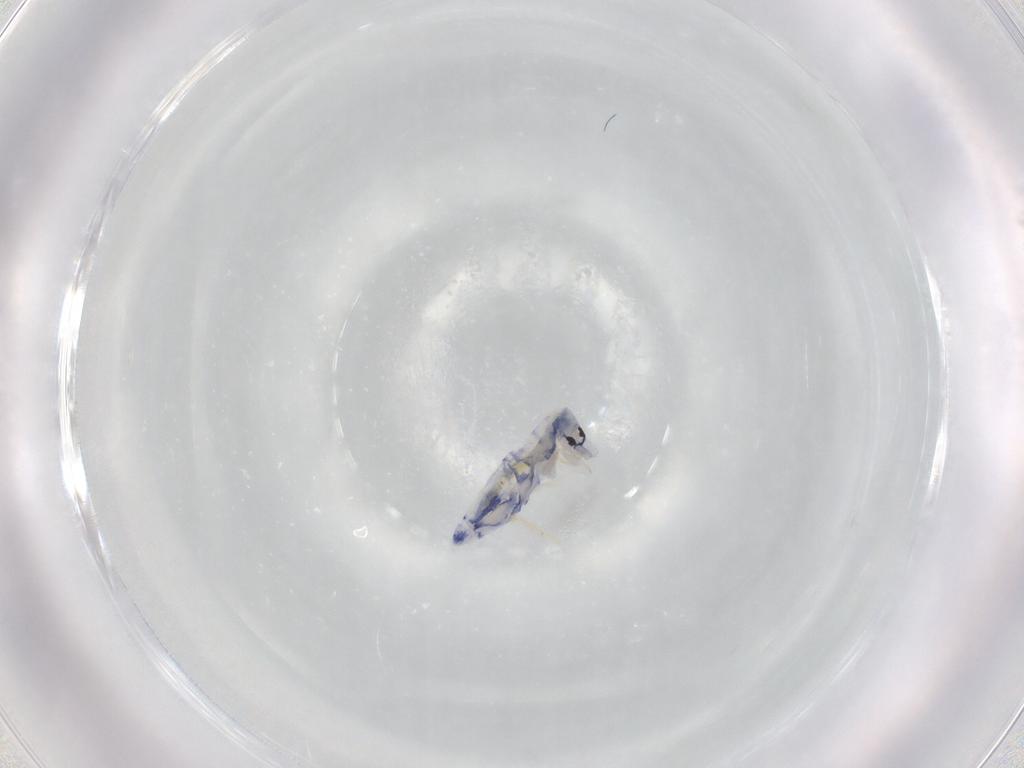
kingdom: Animalia
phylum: Arthropoda
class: Collembola
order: Entomobryomorpha
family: Entomobryidae
